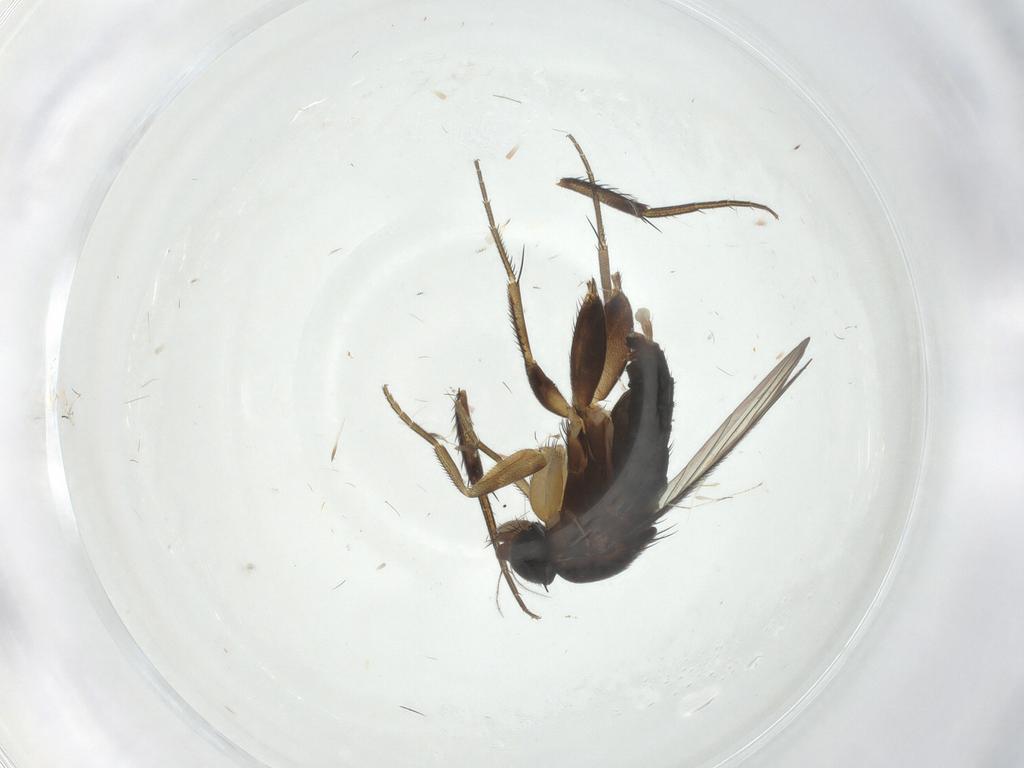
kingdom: Animalia
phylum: Arthropoda
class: Insecta
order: Diptera
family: Phoridae
